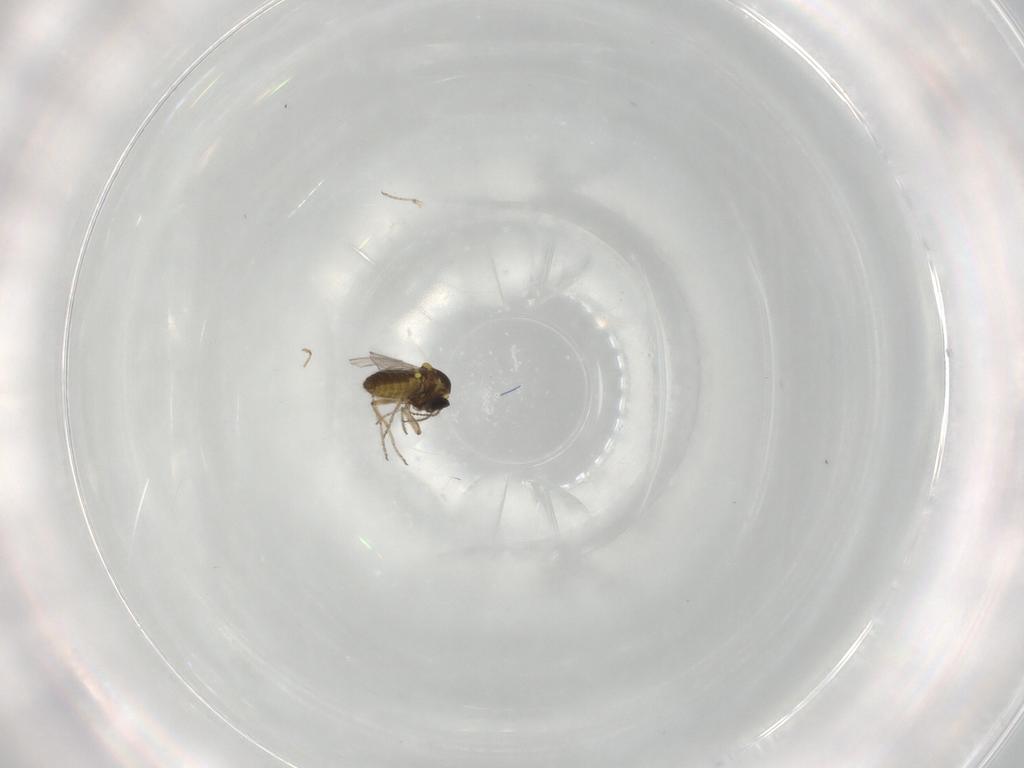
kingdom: Animalia
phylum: Arthropoda
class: Insecta
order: Diptera
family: Ceratopogonidae
